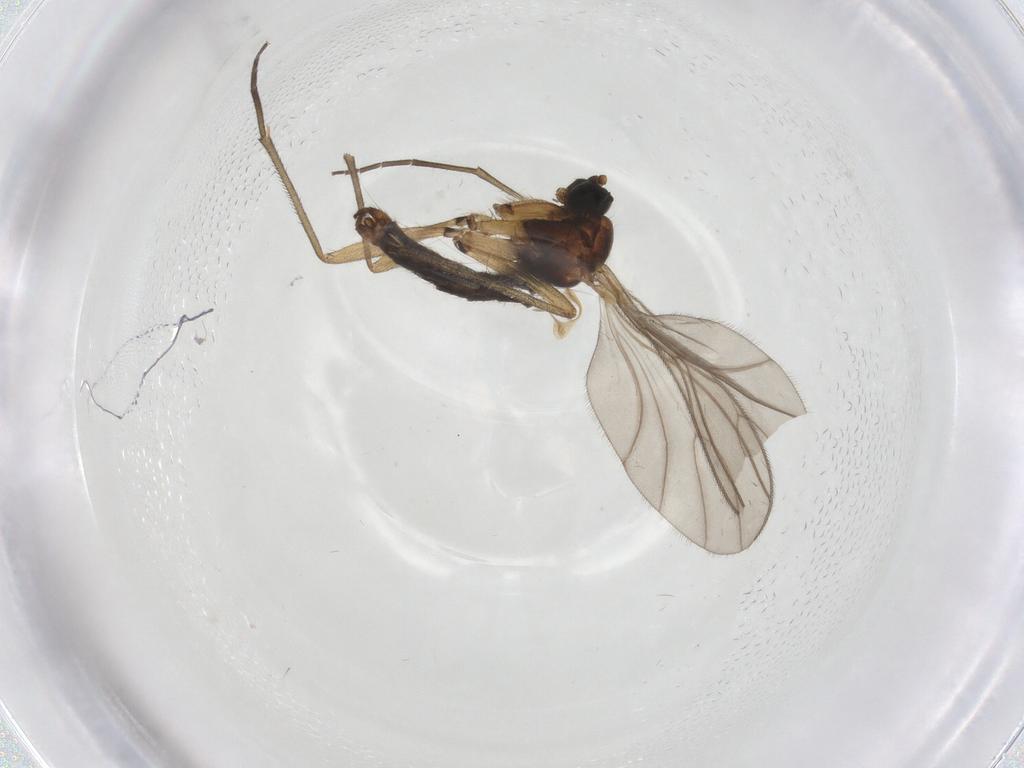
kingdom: Animalia
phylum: Arthropoda
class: Insecta
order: Diptera
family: Sciaridae
